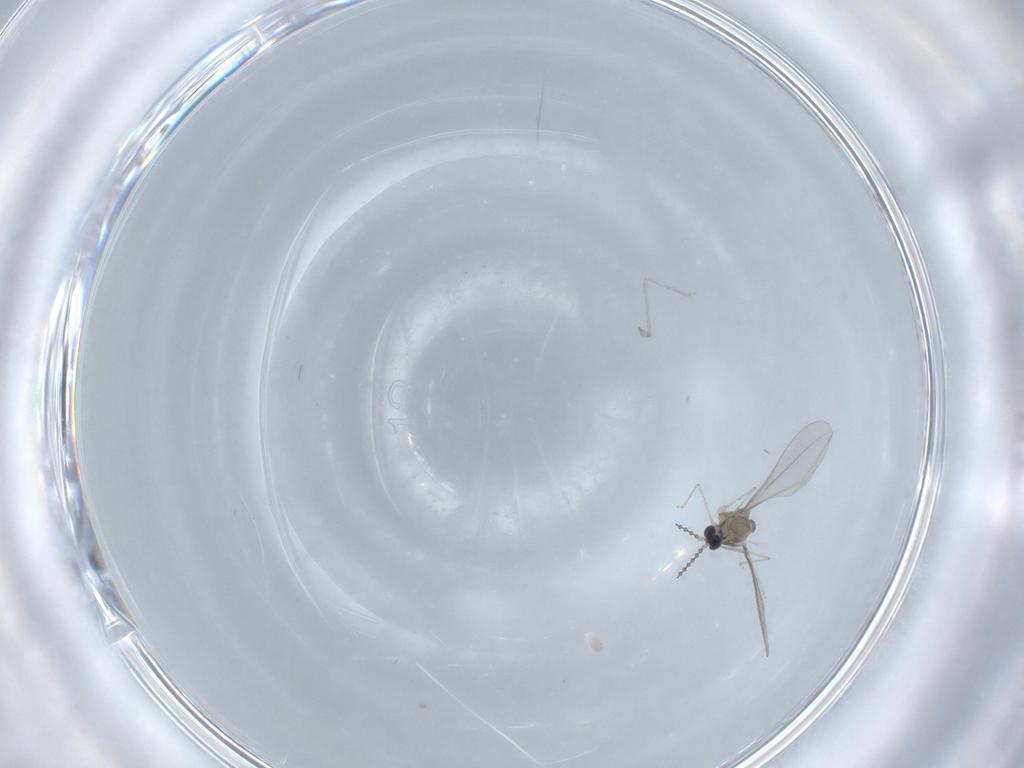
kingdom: Animalia
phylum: Arthropoda
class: Insecta
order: Diptera
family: Cecidomyiidae
